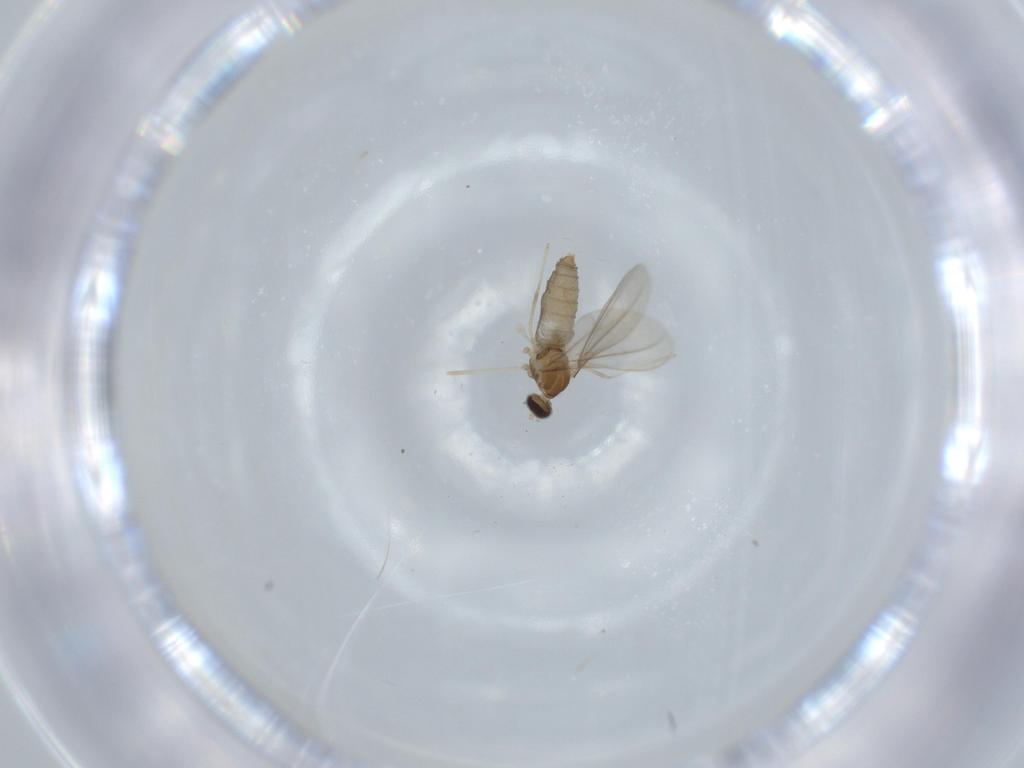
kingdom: Animalia
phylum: Arthropoda
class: Insecta
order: Diptera
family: Cecidomyiidae
